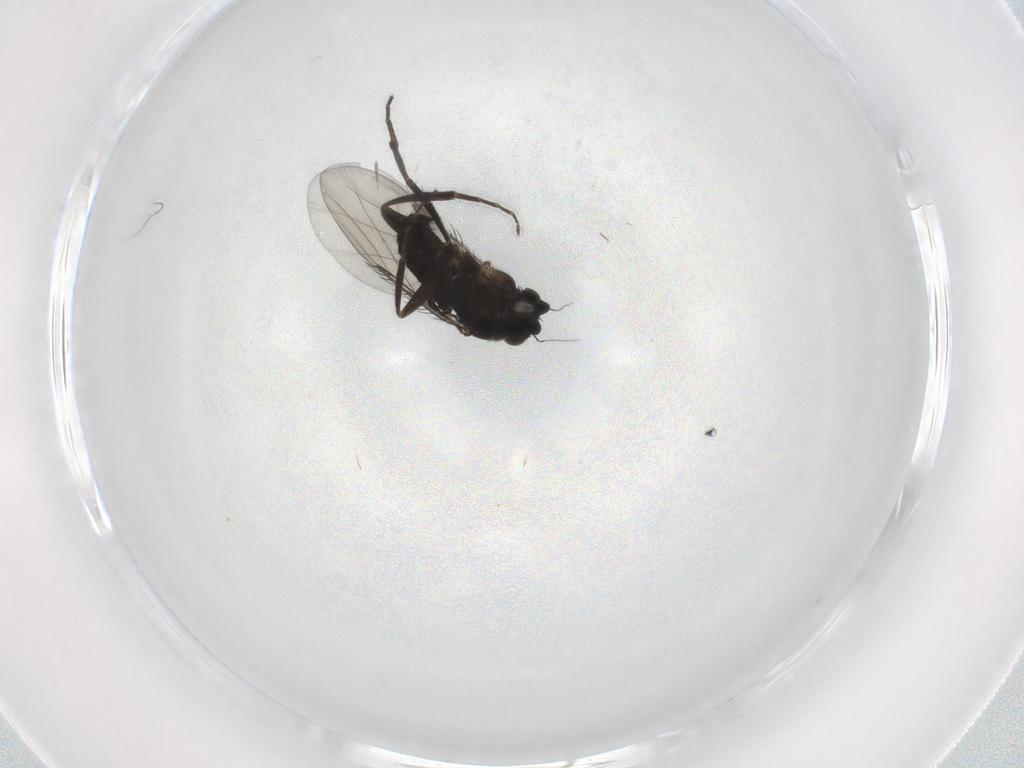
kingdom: Animalia
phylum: Arthropoda
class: Insecta
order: Diptera
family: Phoridae
